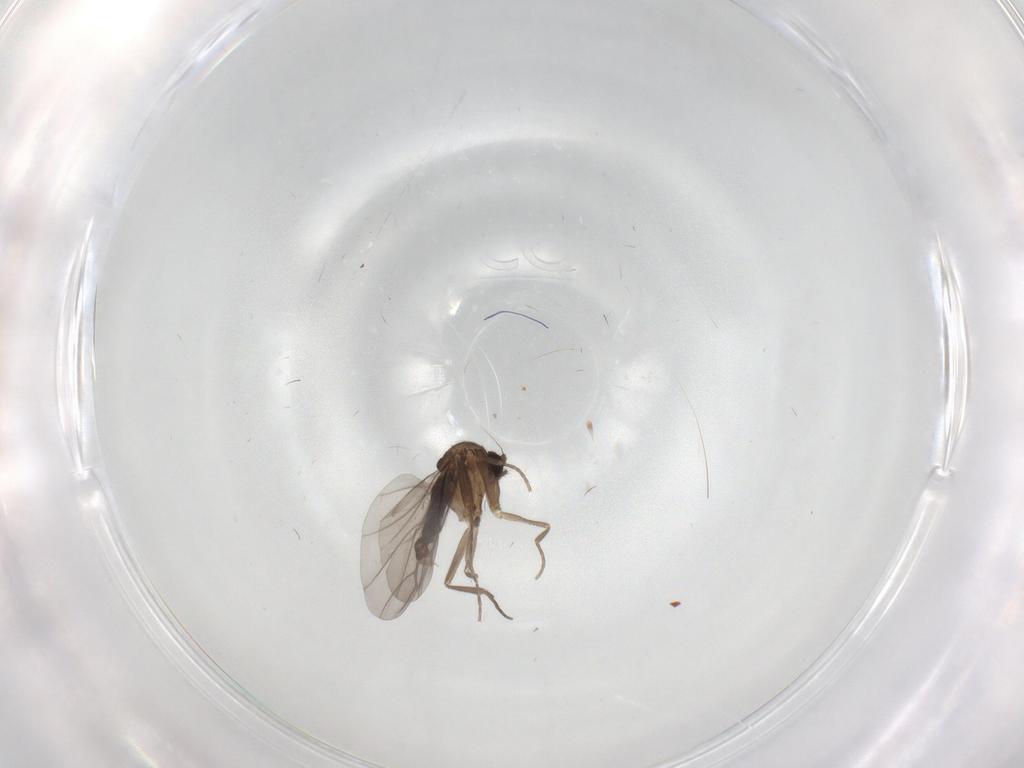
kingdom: Animalia
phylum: Arthropoda
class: Insecta
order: Diptera
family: Phoridae
